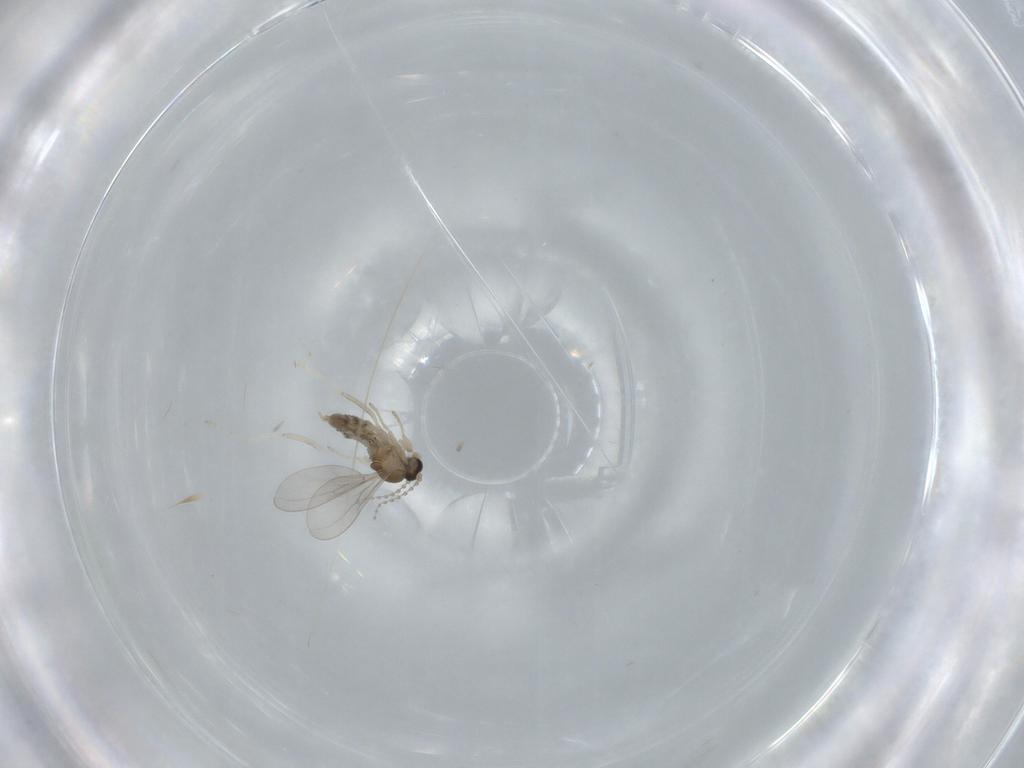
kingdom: Animalia
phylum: Arthropoda
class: Insecta
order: Diptera
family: Cecidomyiidae
